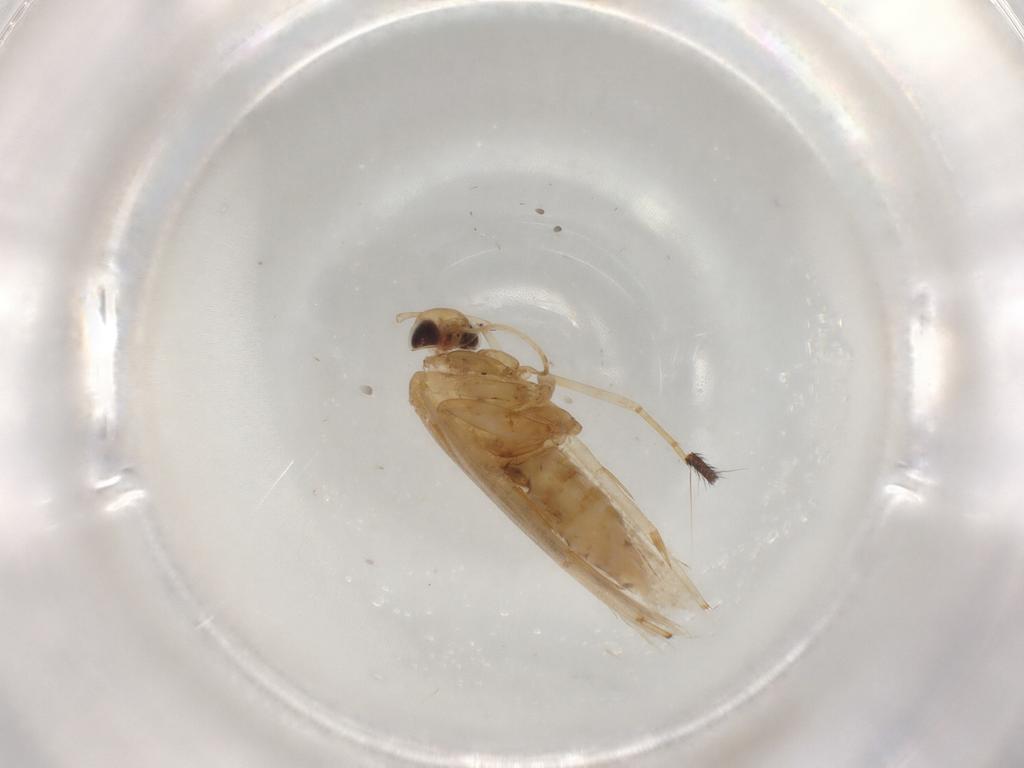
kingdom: Animalia
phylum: Arthropoda
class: Insecta
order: Lepidoptera
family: Gelechiidae
